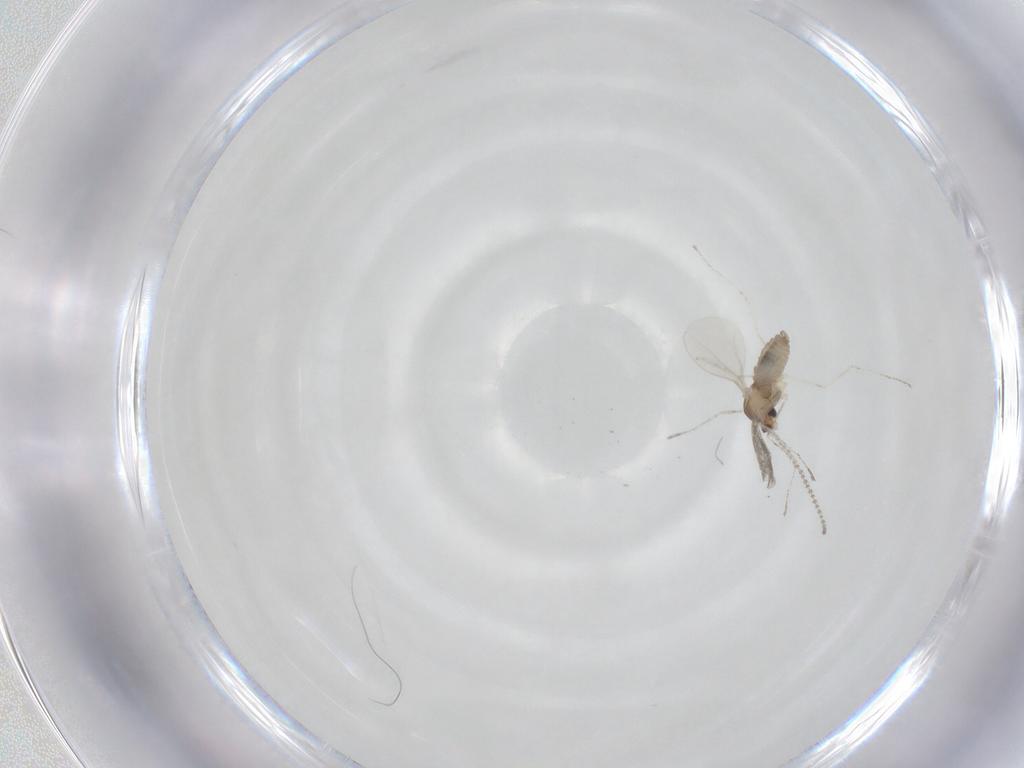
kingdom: Animalia
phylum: Arthropoda
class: Insecta
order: Diptera
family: Cecidomyiidae
